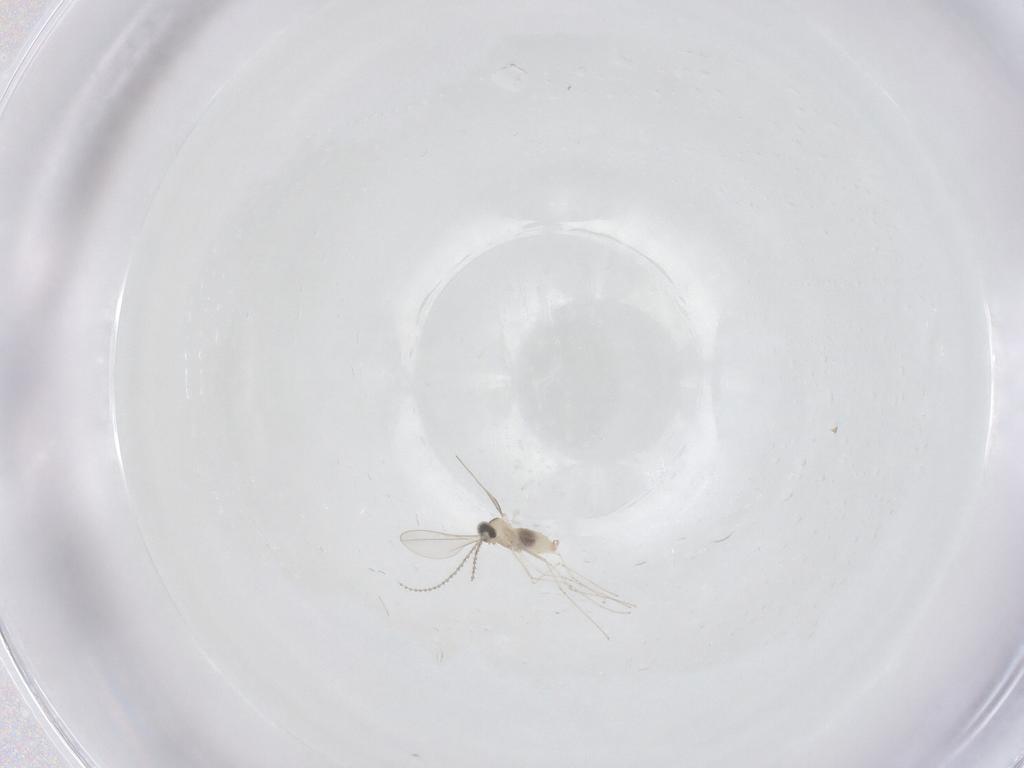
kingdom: Animalia
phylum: Arthropoda
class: Insecta
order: Diptera
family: Cecidomyiidae
